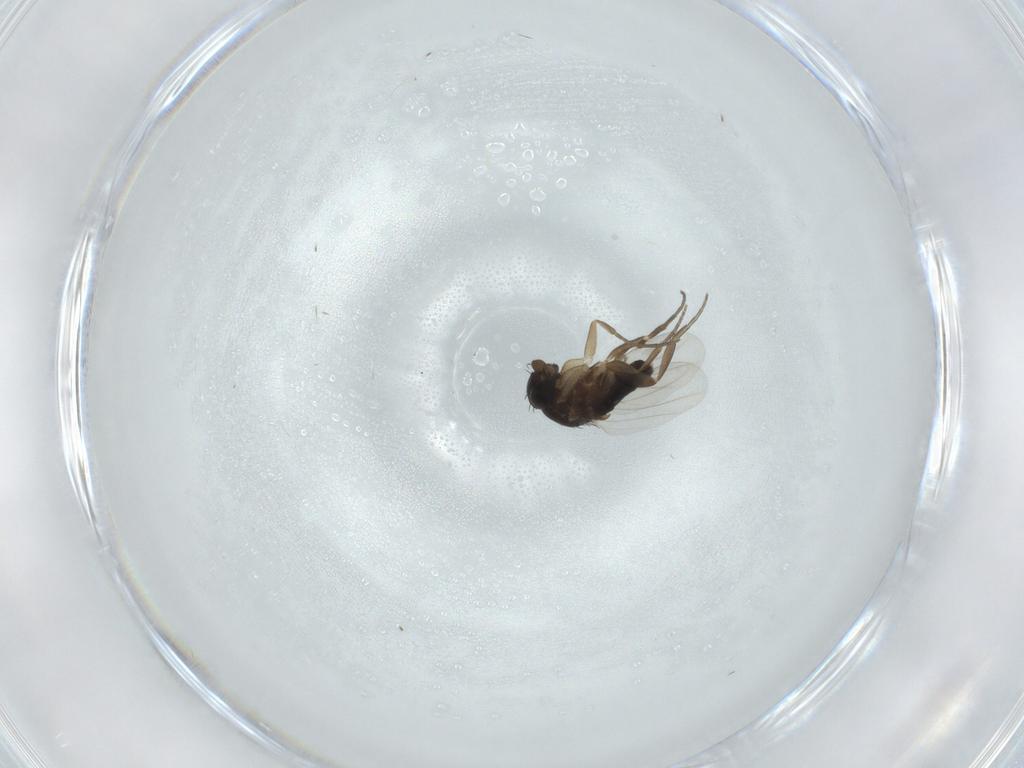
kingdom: Animalia
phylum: Arthropoda
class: Insecta
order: Diptera
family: Phoridae
